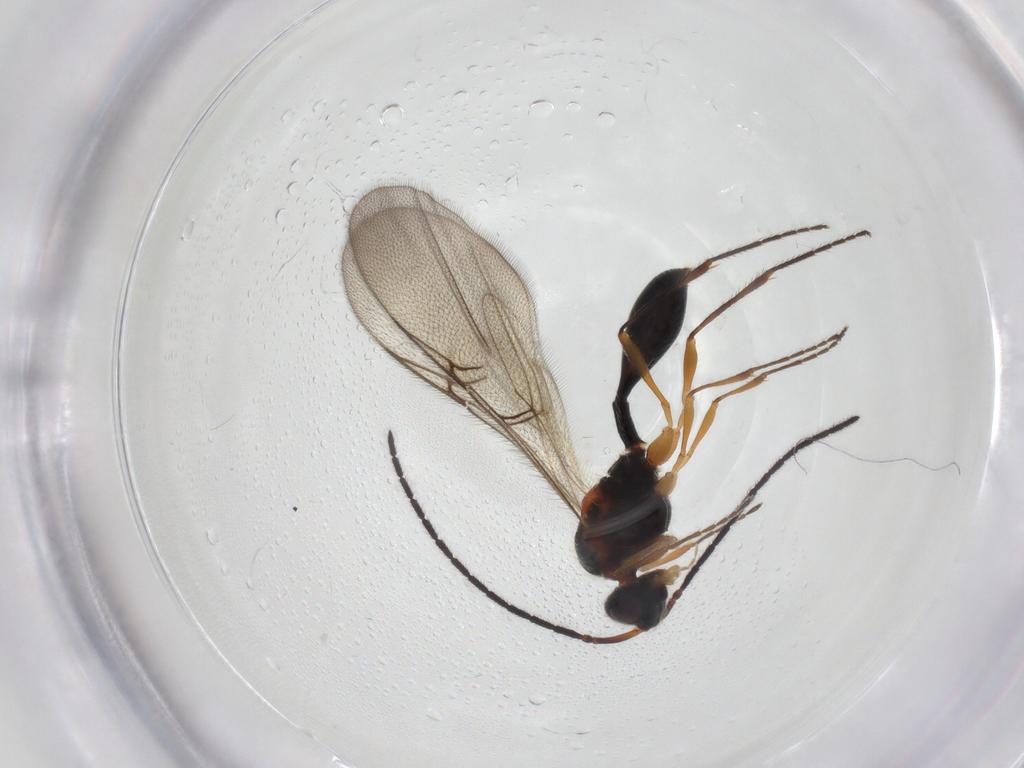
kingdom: Animalia
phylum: Arthropoda
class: Insecta
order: Hymenoptera
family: Diapriidae
